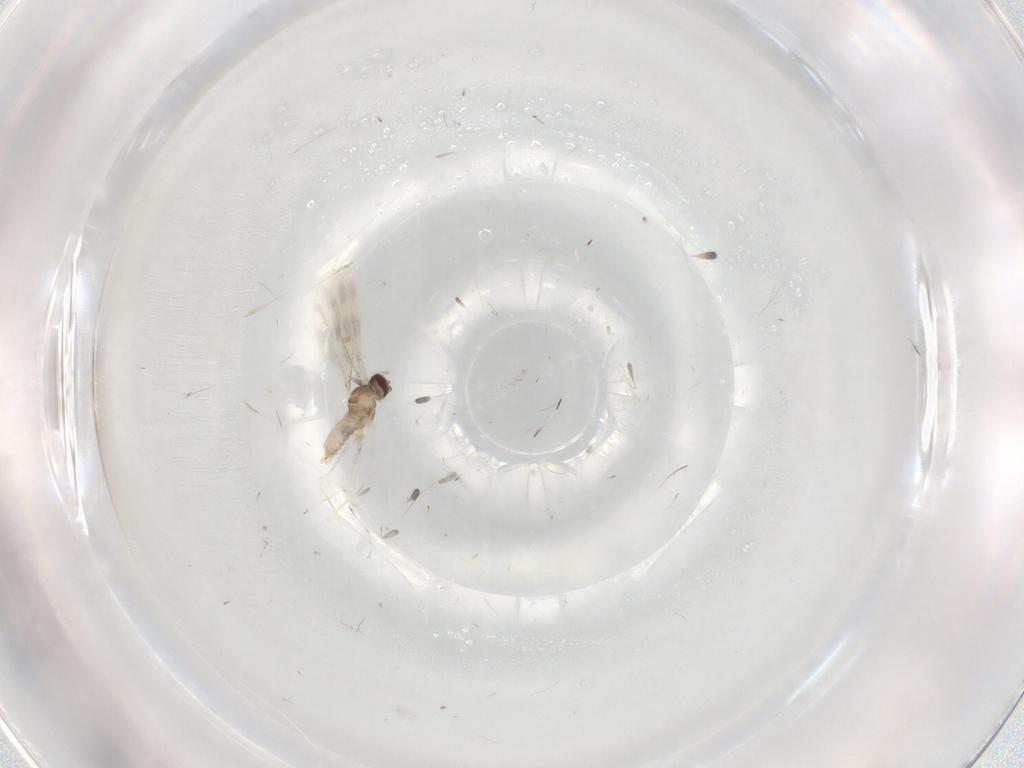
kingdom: Animalia
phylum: Arthropoda
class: Insecta
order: Diptera
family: Cecidomyiidae
